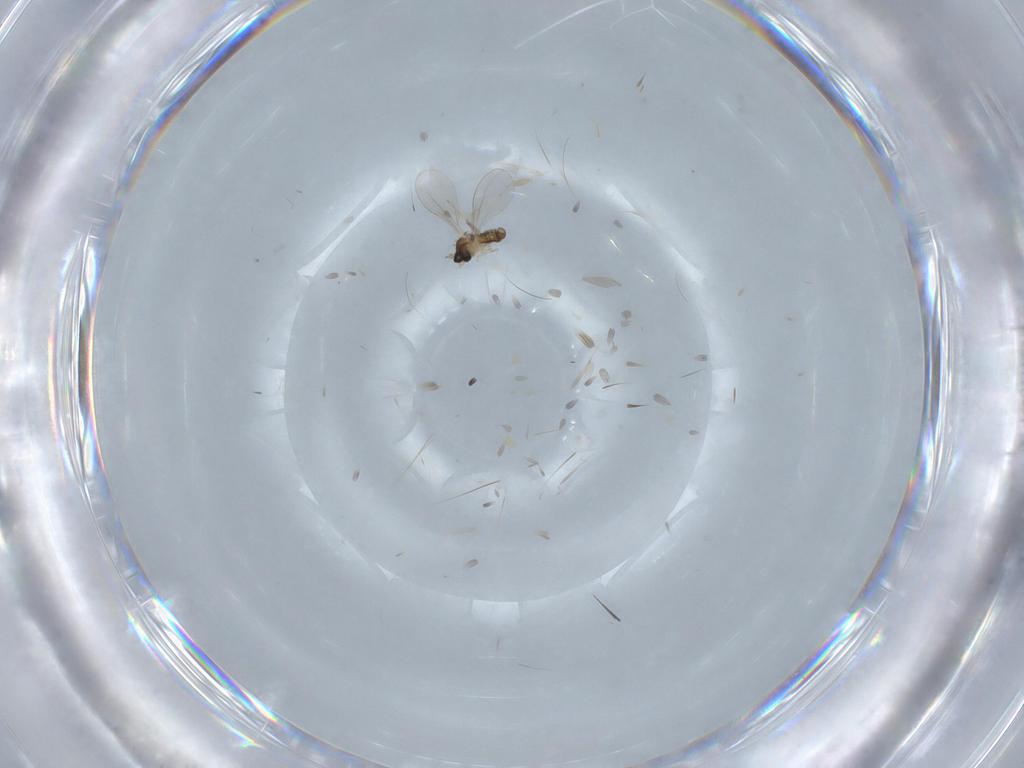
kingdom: Animalia
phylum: Arthropoda
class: Insecta
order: Diptera
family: Cecidomyiidae
